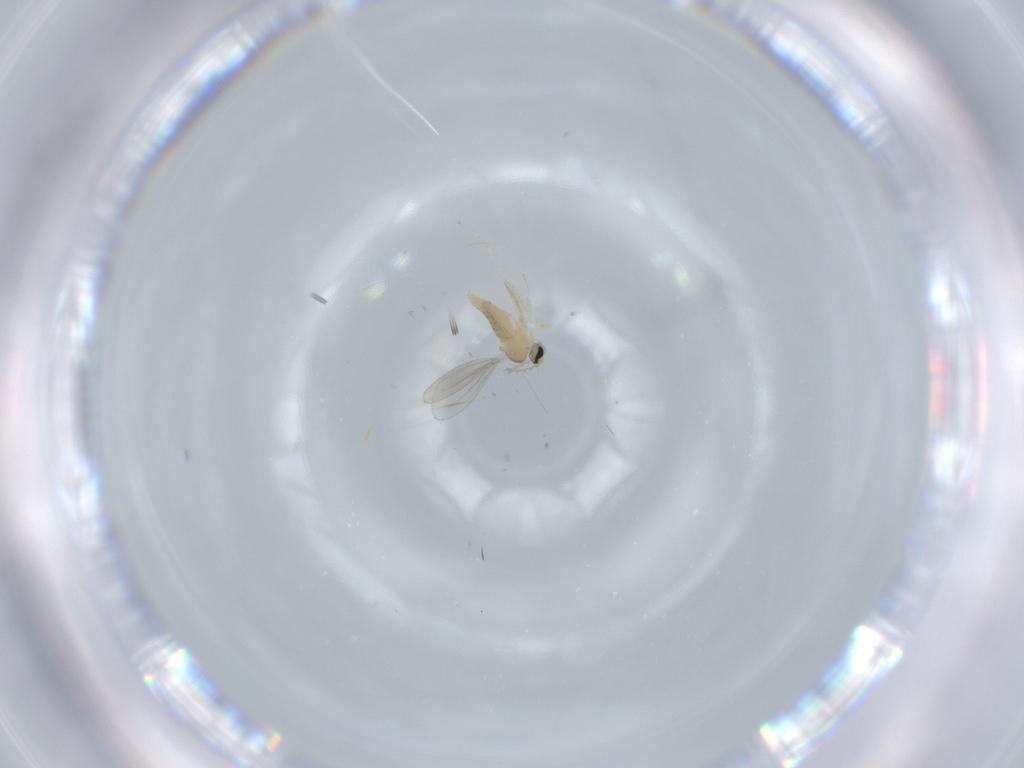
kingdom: Animalia
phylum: Arthropoda
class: Insecta
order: Diptera
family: Cecidomyiidae
